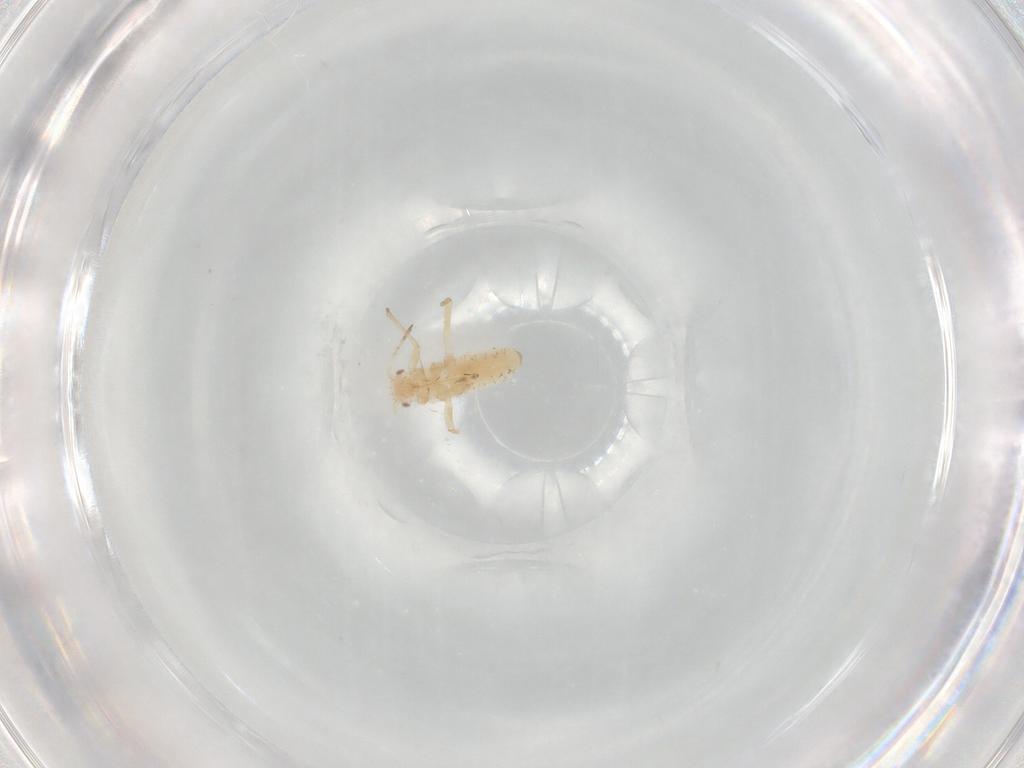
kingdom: Animalia
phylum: Arthropoda
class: Insecta
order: Hemiptera
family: Aphididae
